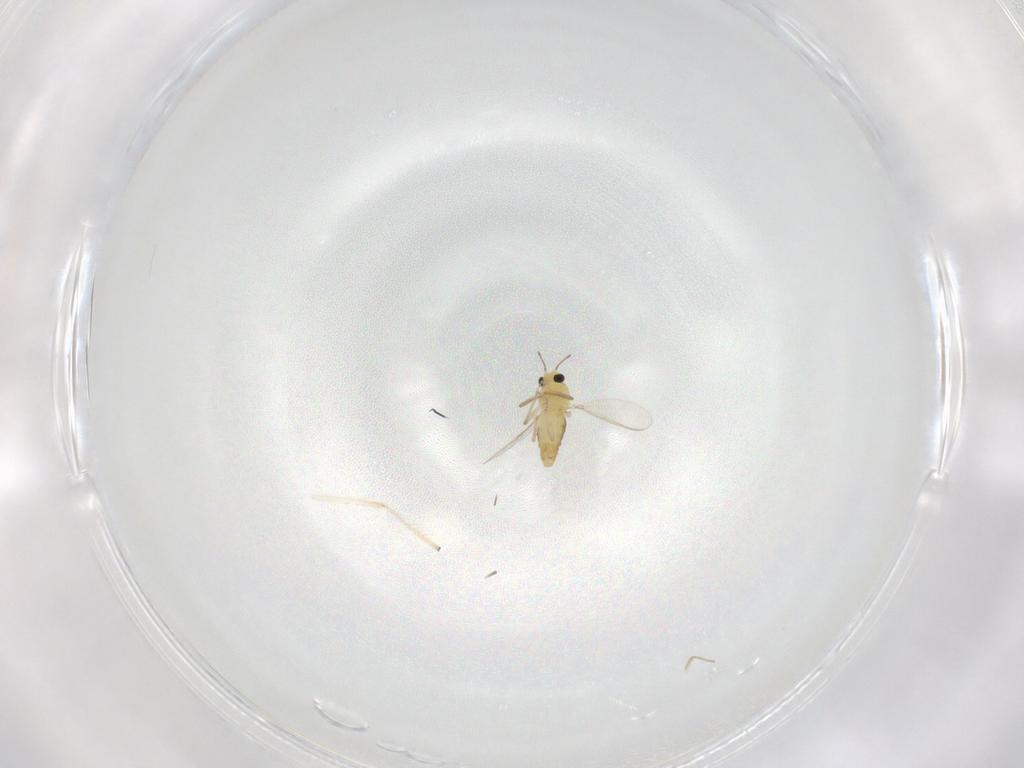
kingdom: Animalia
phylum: Arthropoda
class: Insecta
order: Diptera
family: Chironomidae
